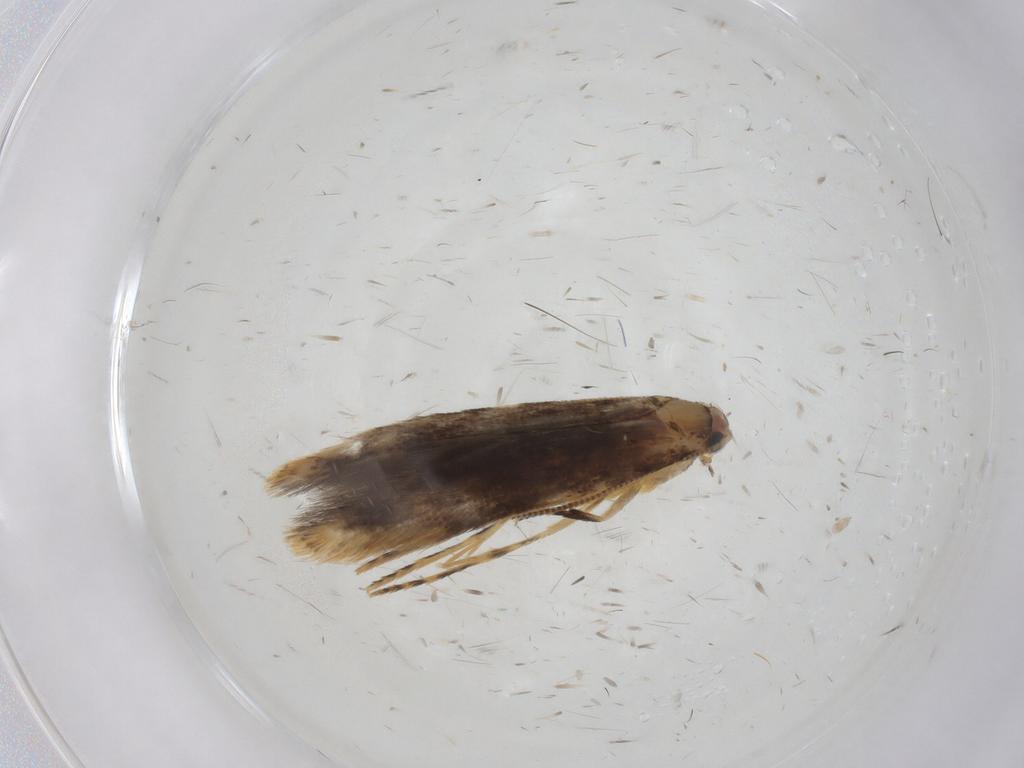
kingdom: Animalia
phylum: Arthropoda
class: Insecta
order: Lepidoptera
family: Tineidae
